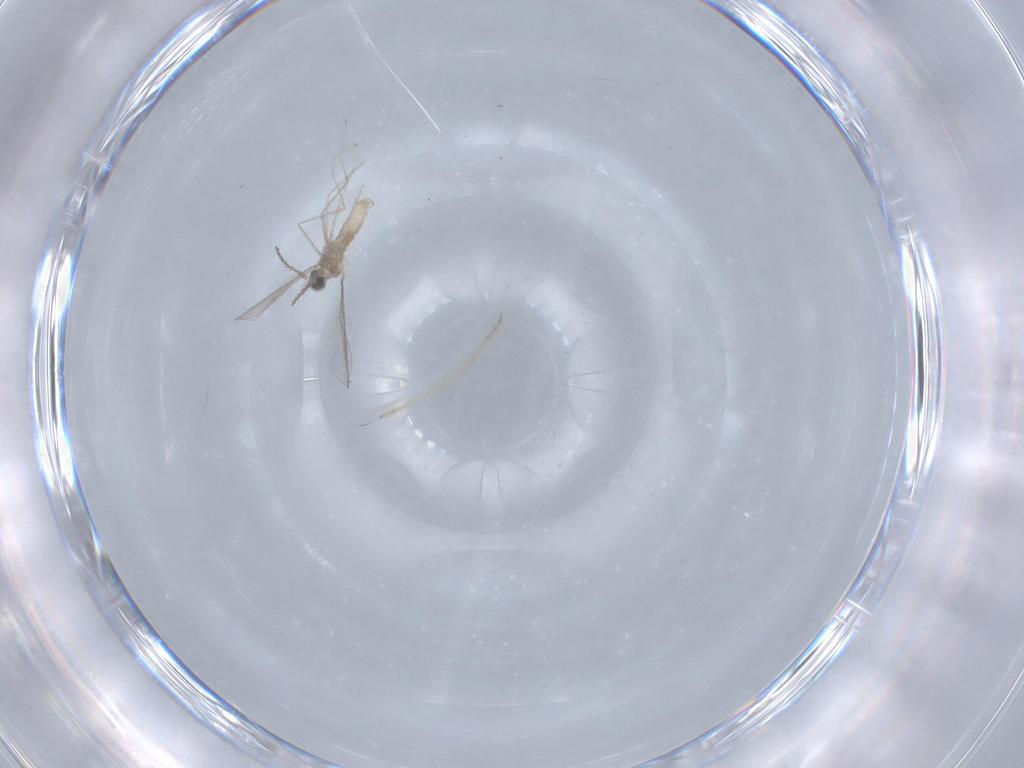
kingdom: Animalia
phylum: Arthropoda
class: Insecta
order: Diptera
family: Cecidomyiidae
